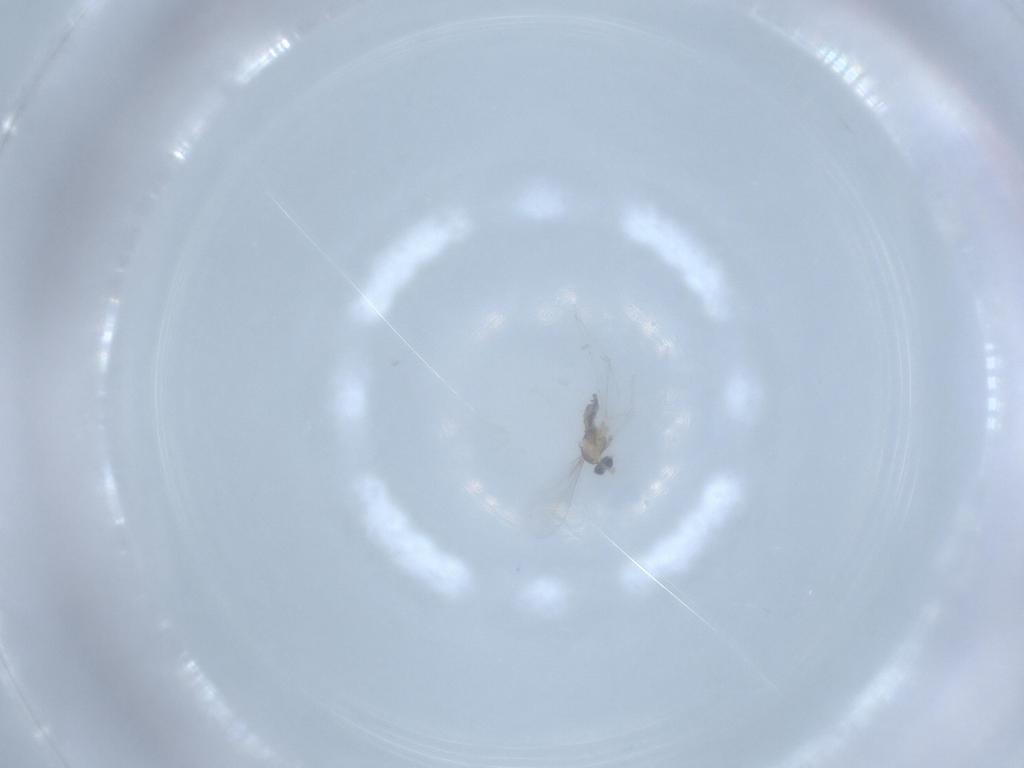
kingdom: Animalia
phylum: Arthropoda
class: Insecta
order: Diptera
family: Cecidomyiidae
